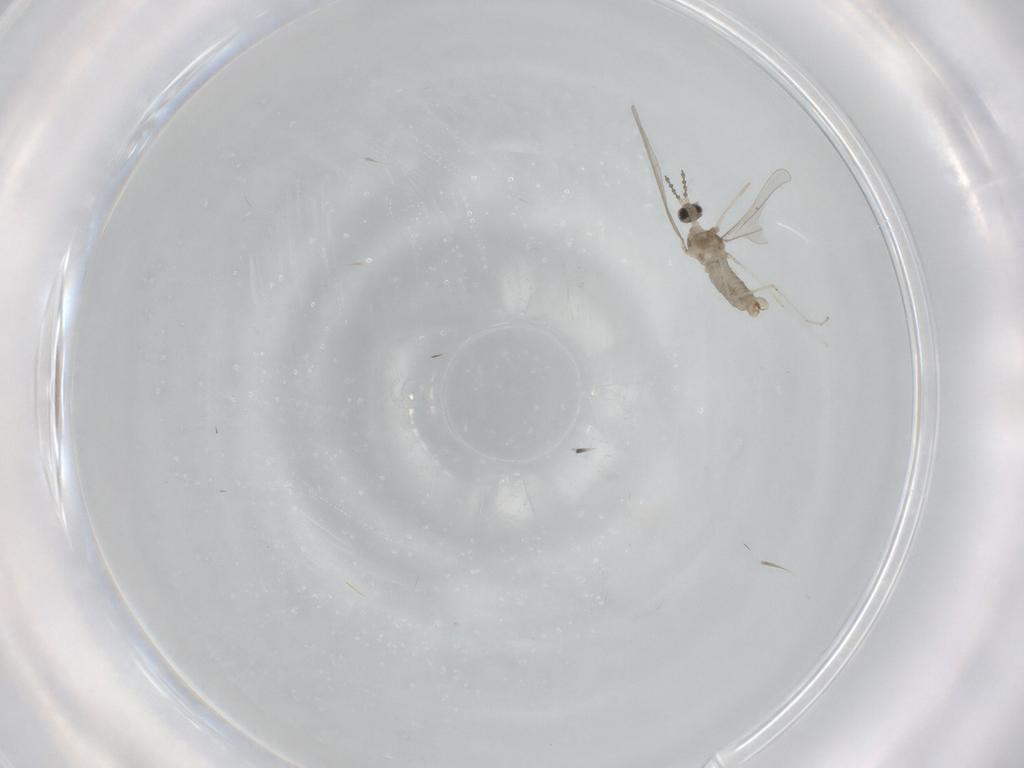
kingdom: Animalia
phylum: Arthropoda
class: Insecta
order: Diptera
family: Cecidomyiidae
